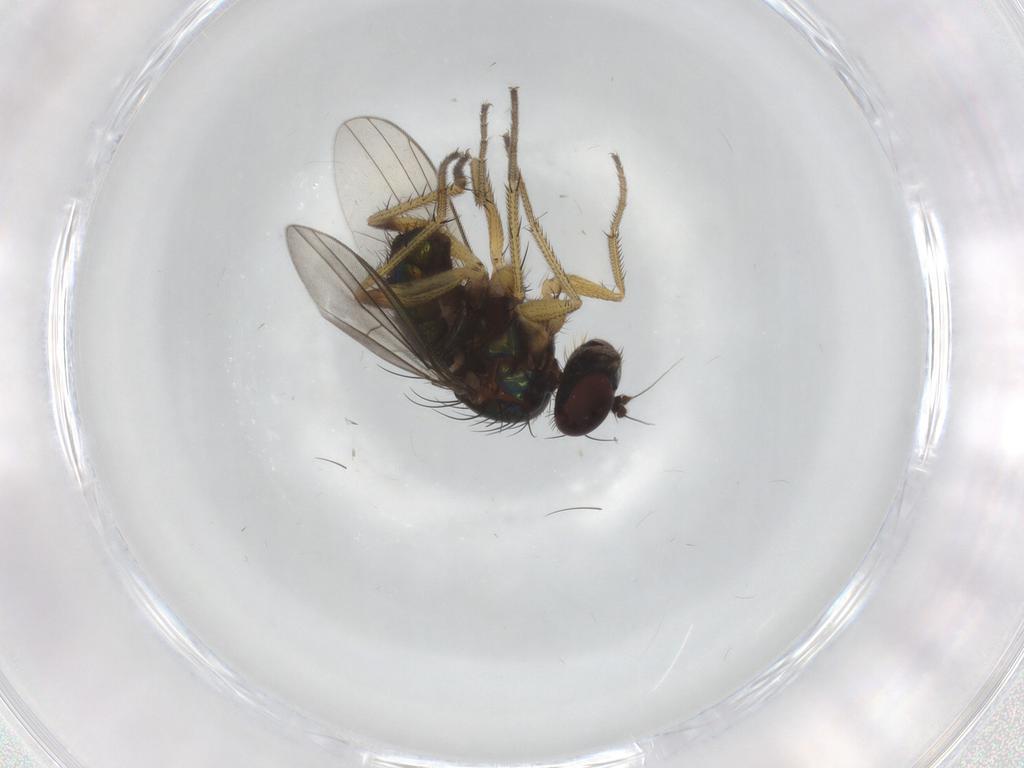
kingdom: Animalia
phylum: Arthropoda
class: Insecta
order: Diptera
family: Dolichopodidae
